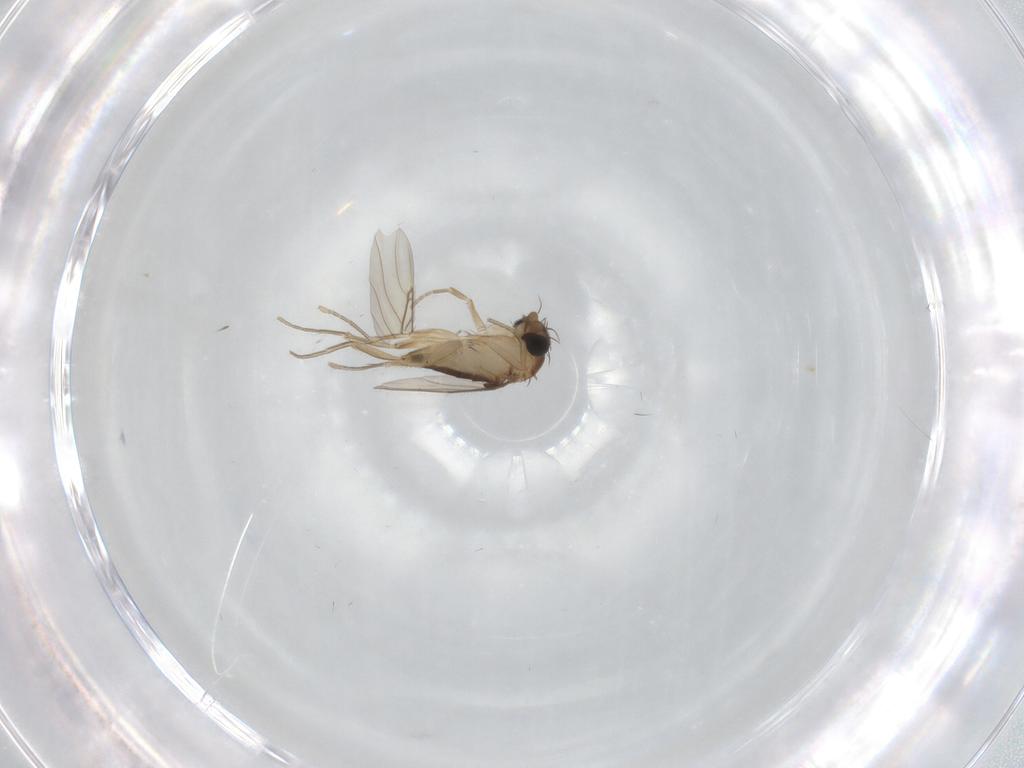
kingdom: Animalia
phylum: Arthropoda
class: Insecta
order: Diptera
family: Phoridae
